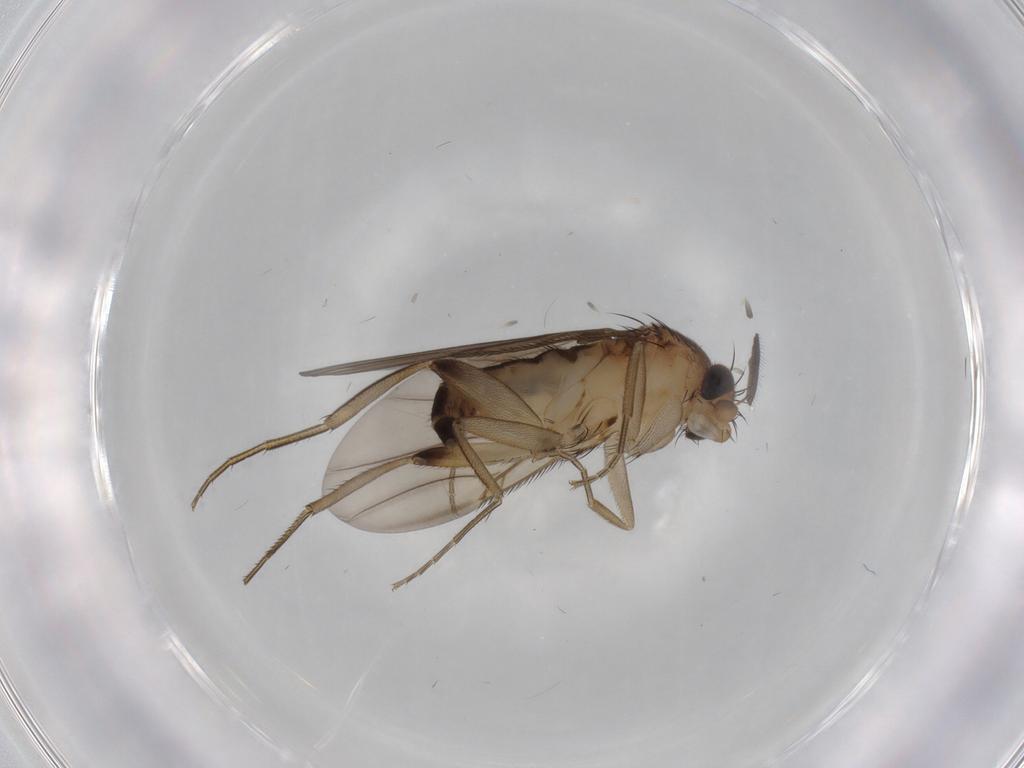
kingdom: Animalia
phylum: Arthropoda
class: Insecta
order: Diptera
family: Phoridae
